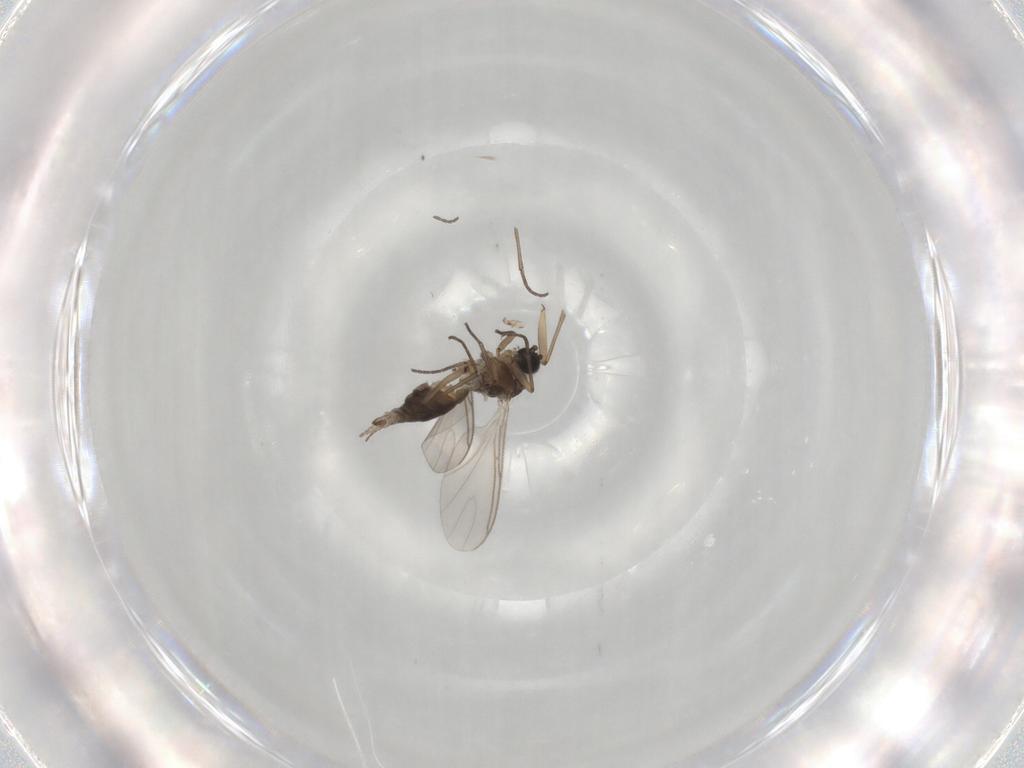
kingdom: Animalia
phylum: Arthropoda
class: Insecta
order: Diptera
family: Sciaridae
